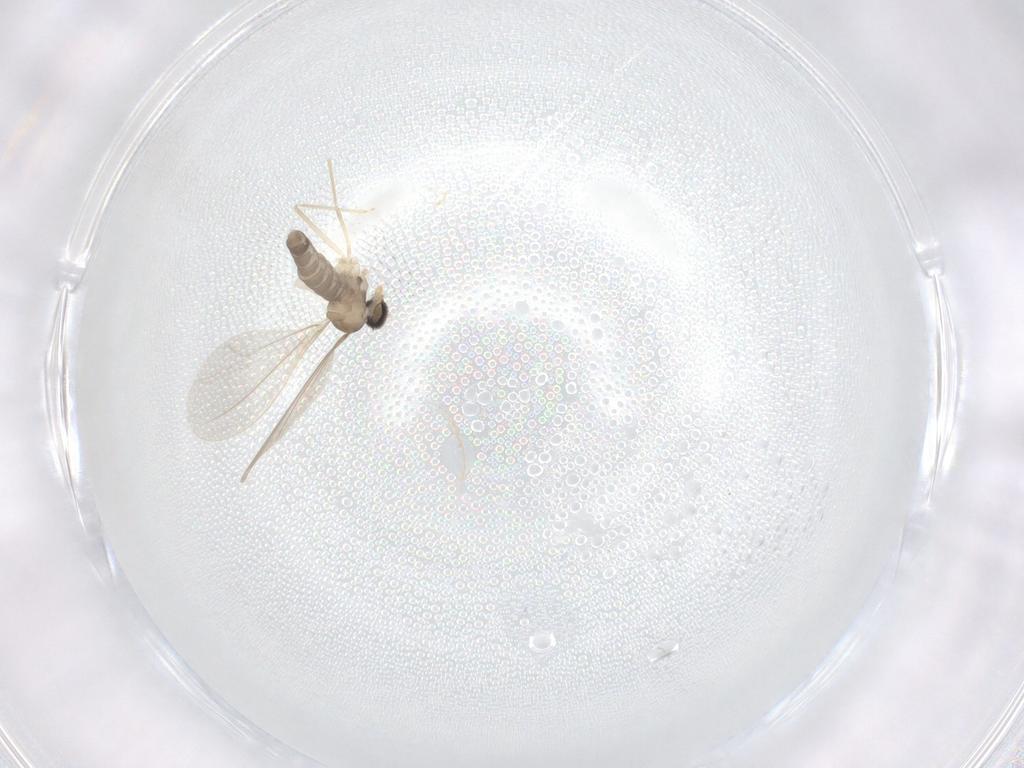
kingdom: Animalia
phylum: Arthropoda
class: Insecta
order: Diptera
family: Cecidomyiidae
